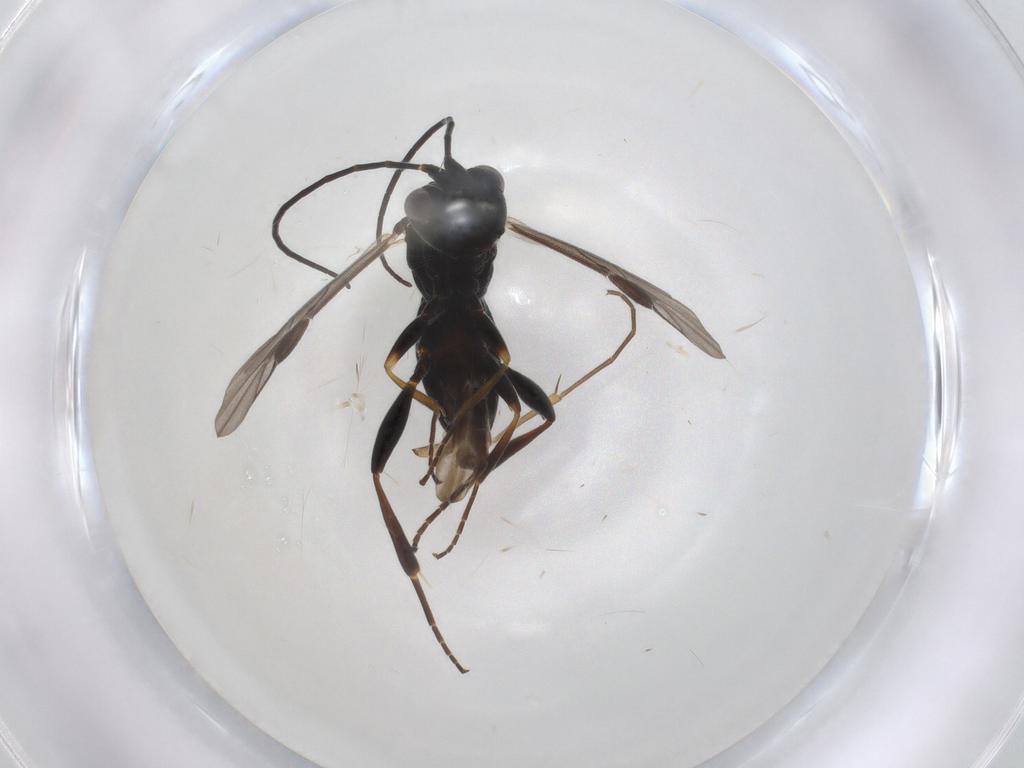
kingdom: Animalia
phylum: Arthropoda
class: Insecta
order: Hymenoptera
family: Braconidae
